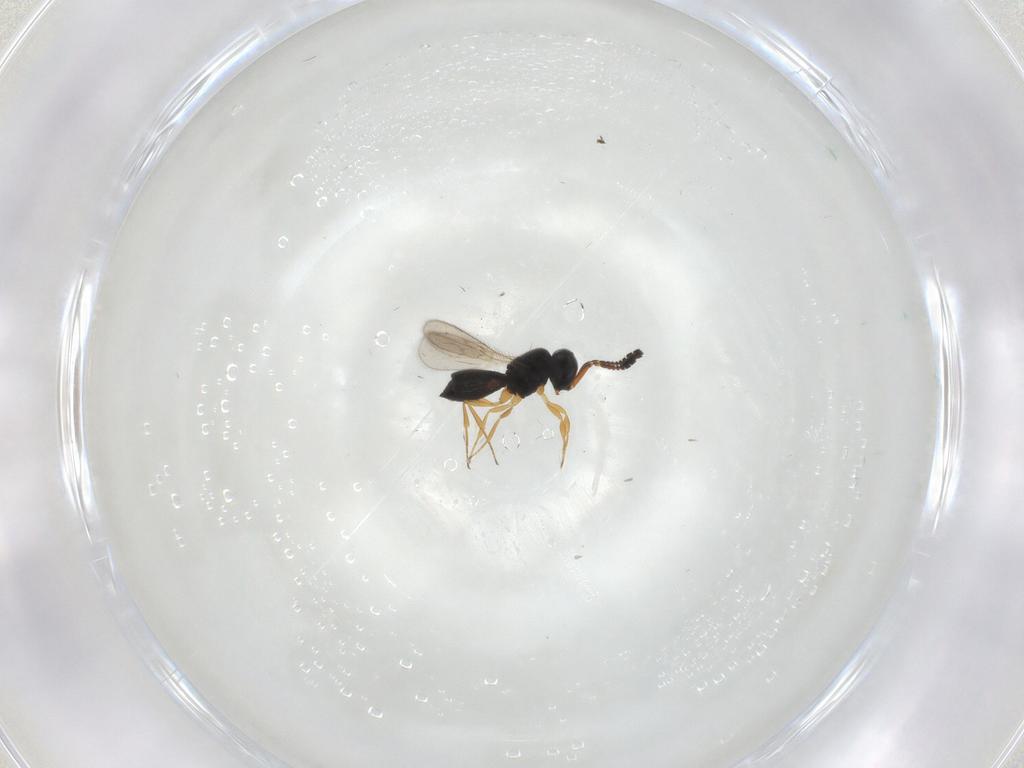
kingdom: Animalia
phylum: Arthropoda
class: Insecta
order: Hymenoptera
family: Scelionidae
